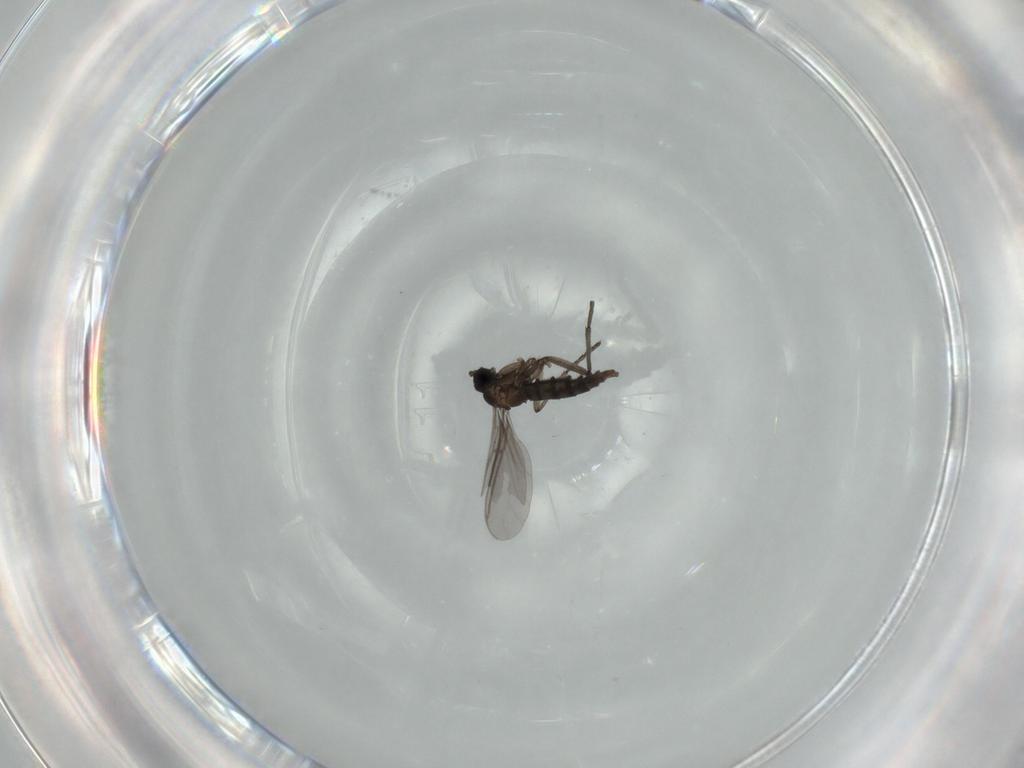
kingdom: Animalia
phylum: Arthropoda
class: Insecta
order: Diptera
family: Sciaridae
